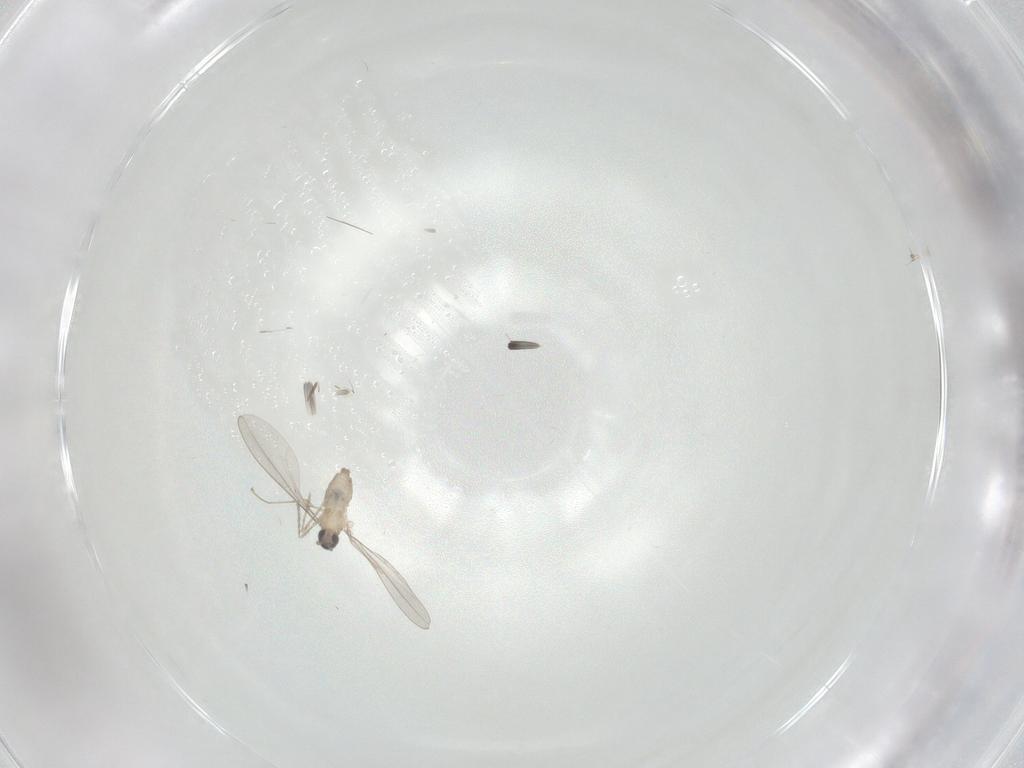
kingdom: Animalia
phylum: Arthropoda
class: Insecta
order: Diptera
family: Cecidomyiidae
